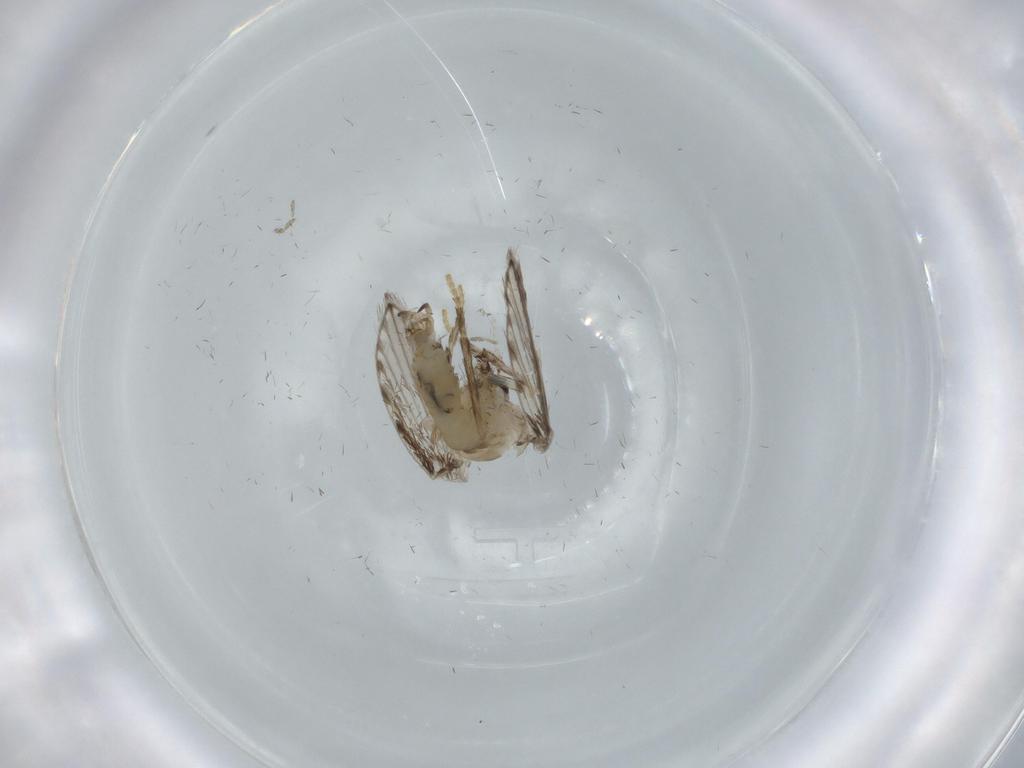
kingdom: Animalia
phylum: Arthropoda
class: Insecta
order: Diptera
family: Psychodidae
